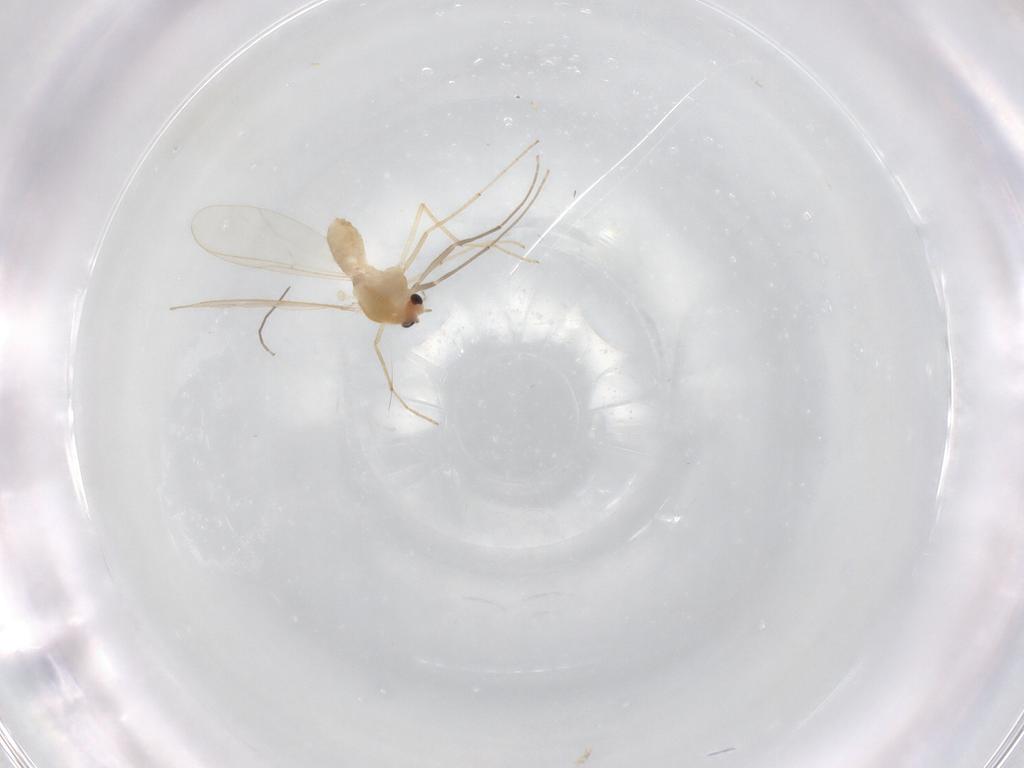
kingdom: Animalia
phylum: Arthropoda
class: Insecta
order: Diptera
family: Chironomidae
